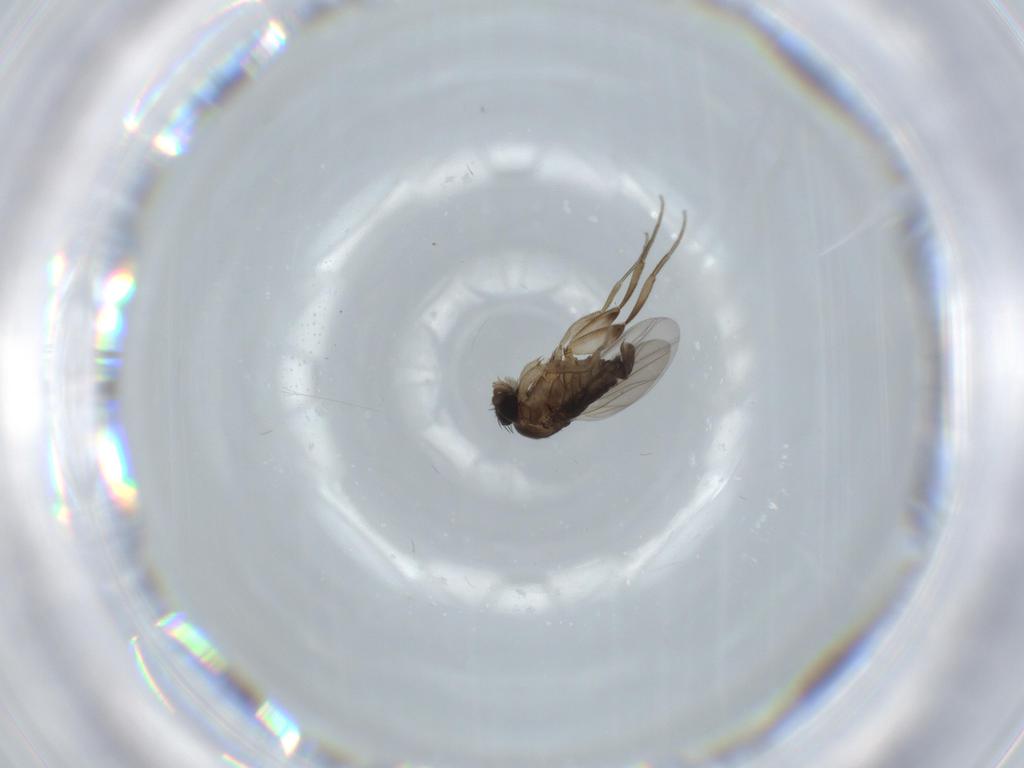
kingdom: Animalia
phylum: Arthropoda
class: Insecta
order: Diptera
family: Phoridae
